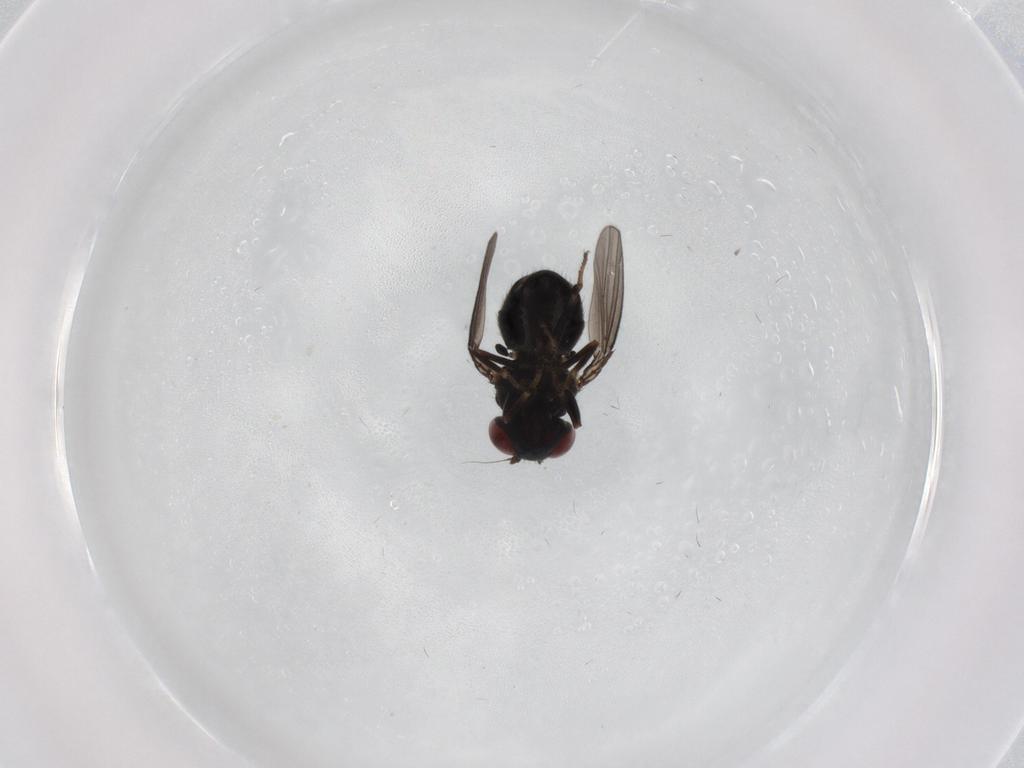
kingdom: Animalia
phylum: Arthropoda
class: Insecta
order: Diptera
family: Ephydridae
